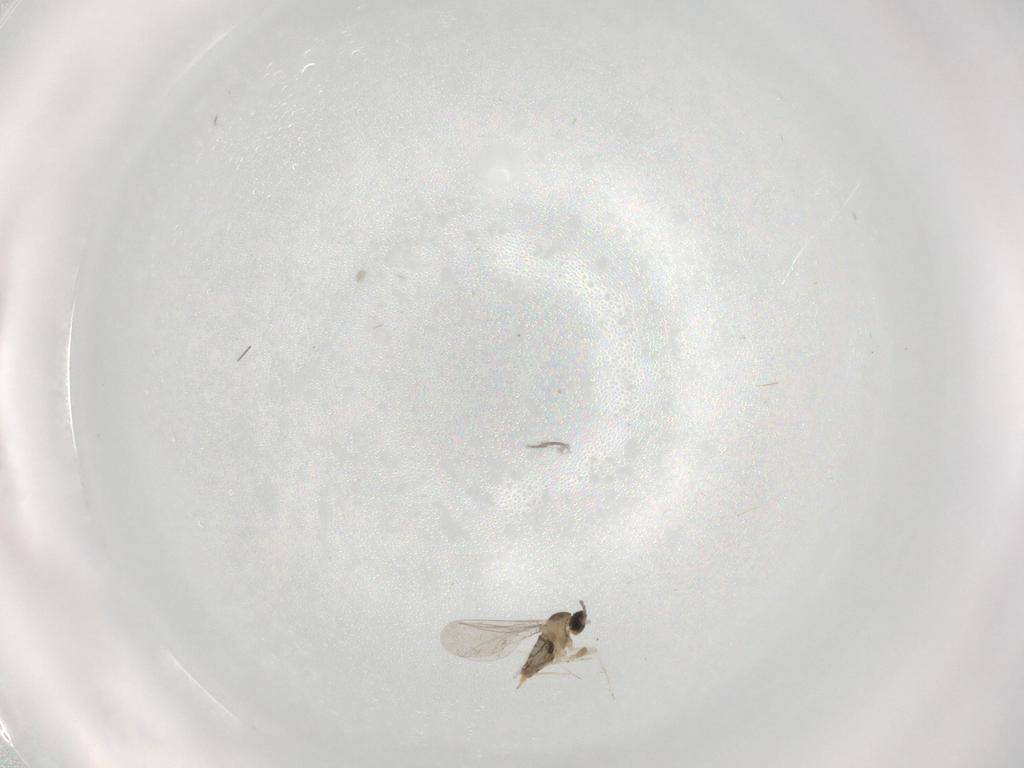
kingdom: Animalia
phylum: Arthropoda
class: Insecta
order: Diptera
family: Cecidomyiidae
